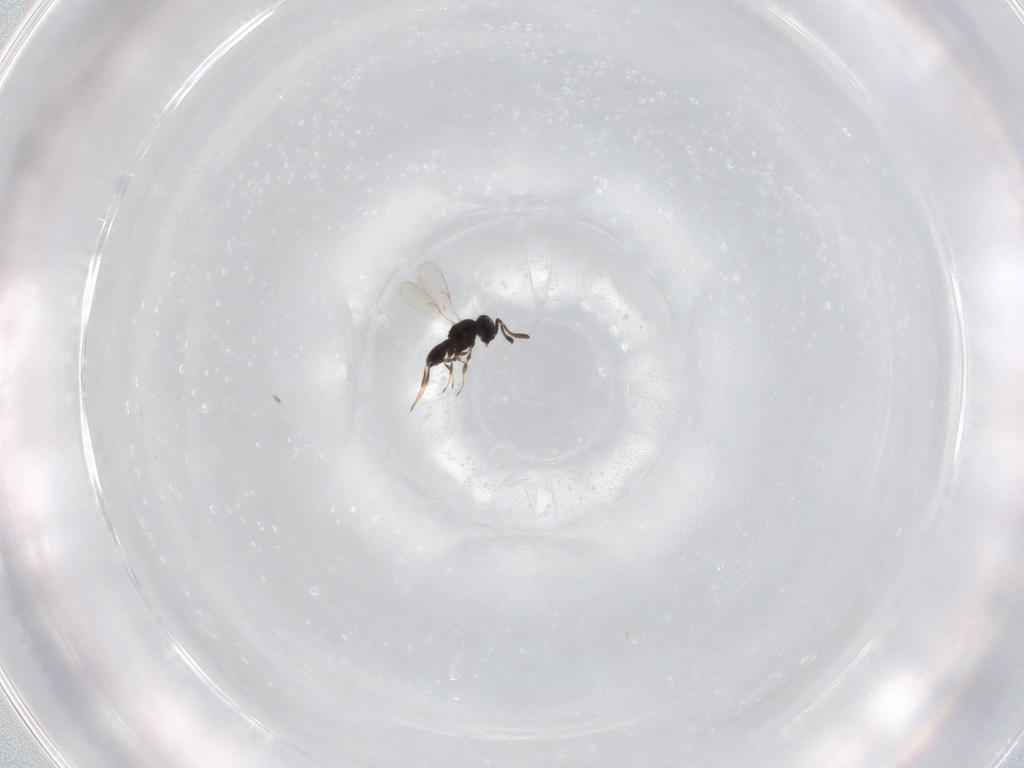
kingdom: Animalia
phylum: Arthropoda
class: Insecta
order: Hymenoptera
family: Scelionidae
